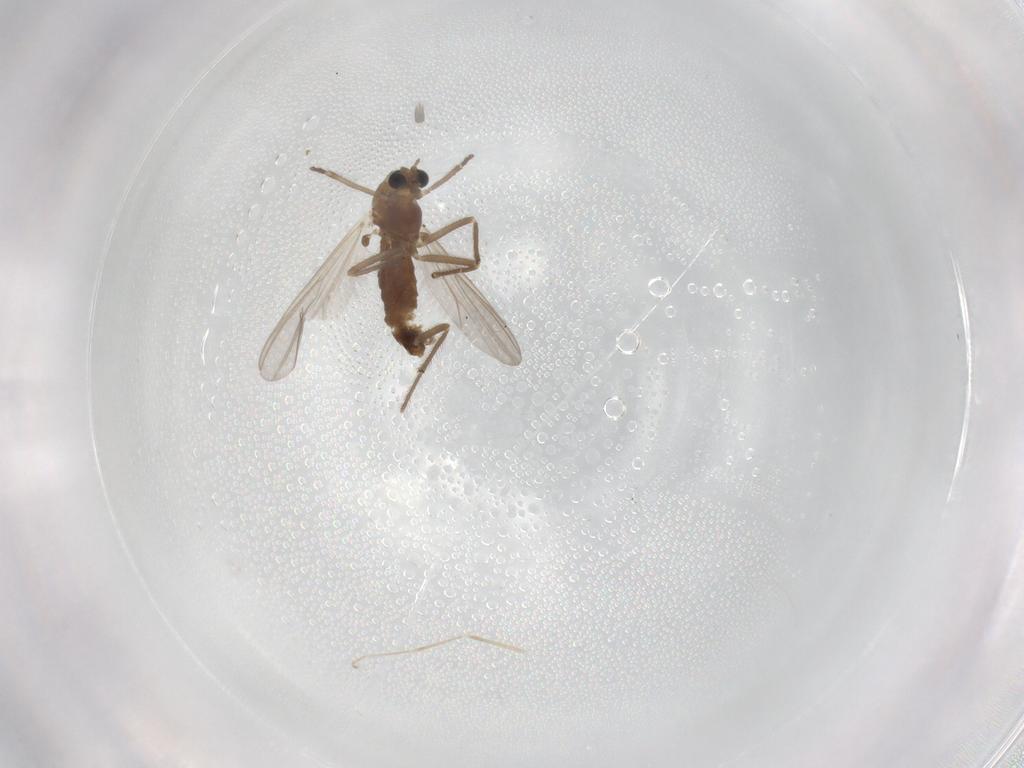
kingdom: Animalia
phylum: Arthropoda
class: Insecta
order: Diptera
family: Chironomidae
